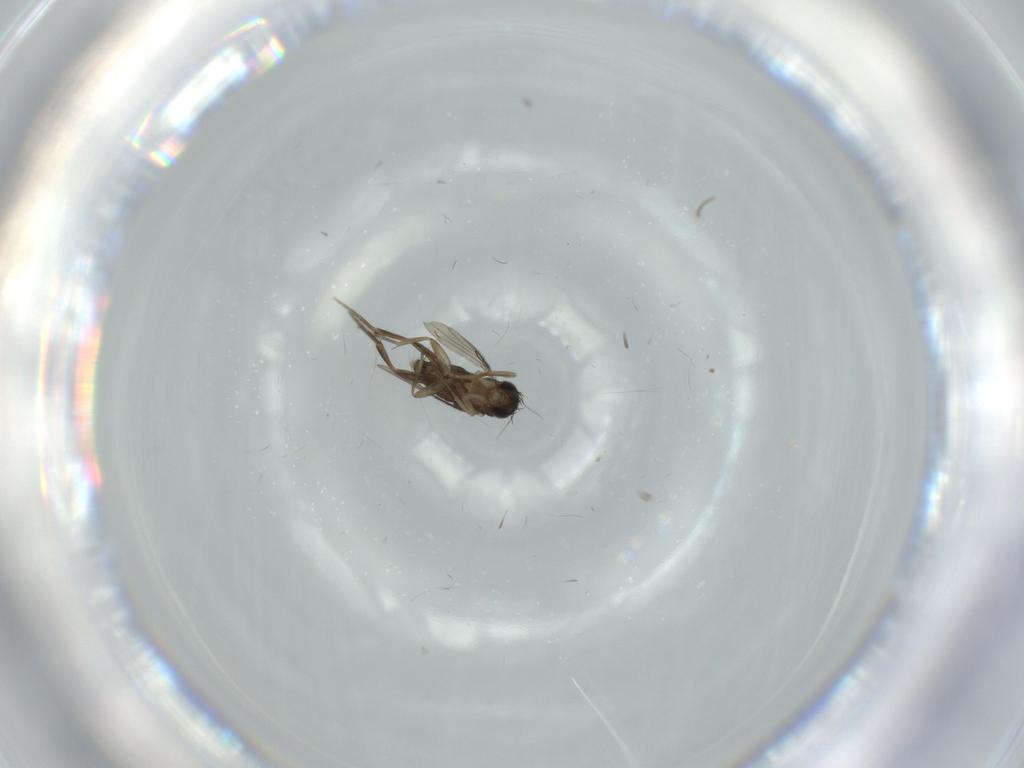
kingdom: Animalia
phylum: Arthropoda
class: Insecta
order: Diptera
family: Phoridae
